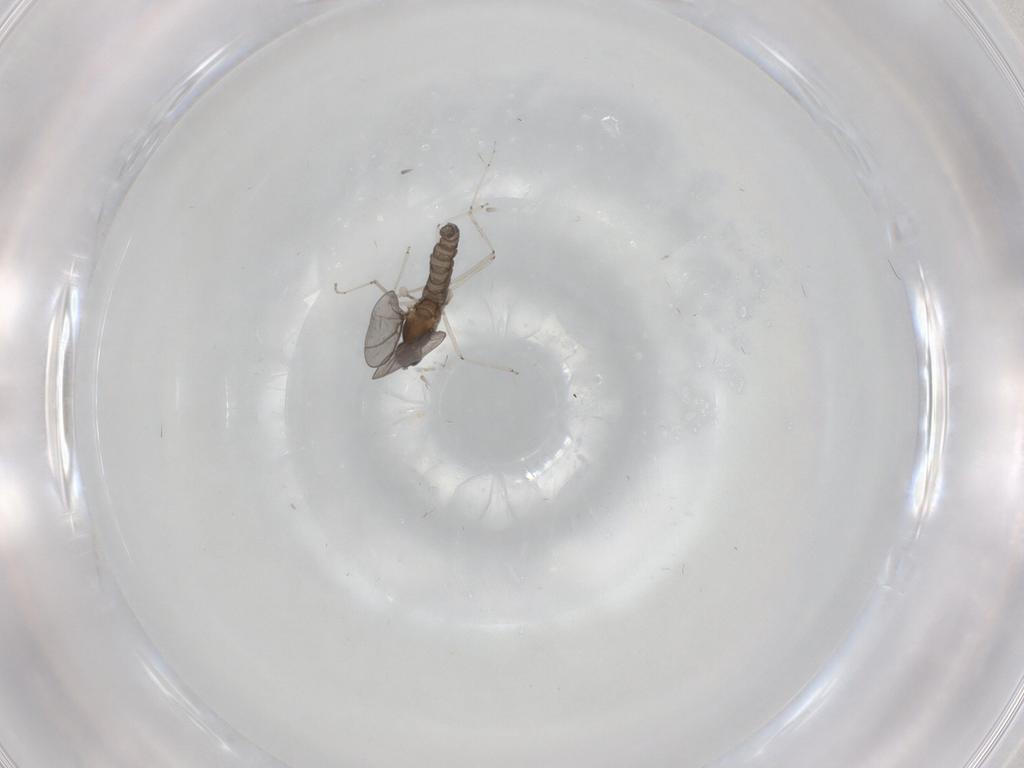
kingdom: Animalia
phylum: Arthropoda
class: Insecta
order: Diptera
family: Cecidomyiidae
